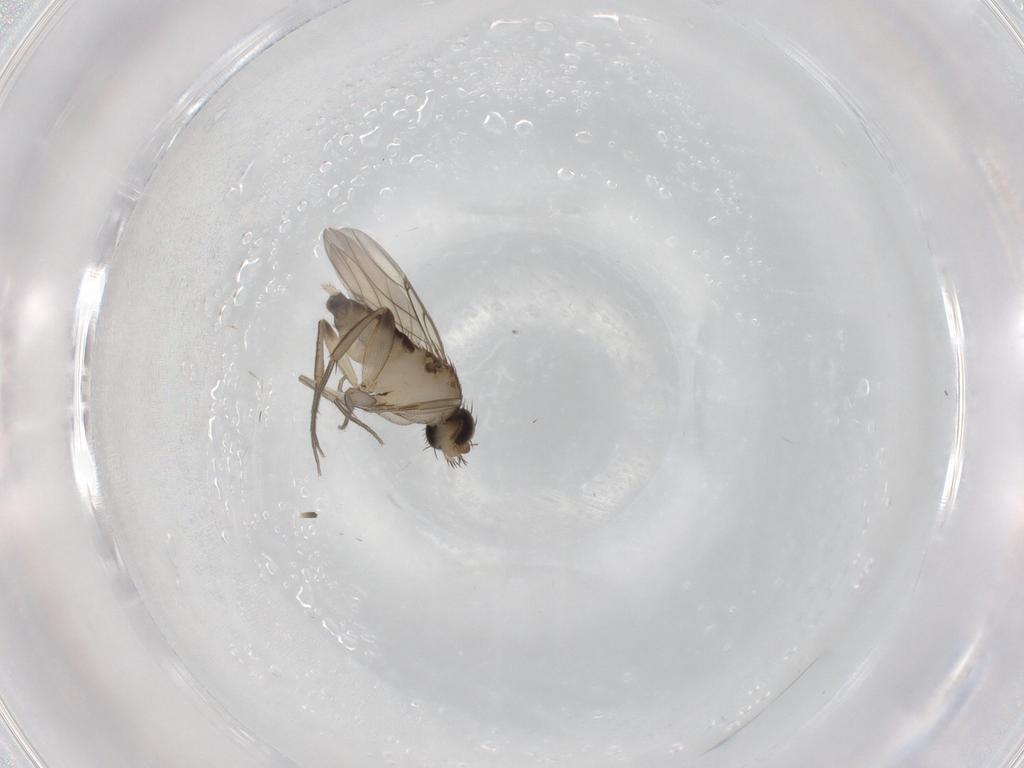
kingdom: Animalia
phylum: Arthropoda
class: Insecta
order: Diptera
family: Phoridae
